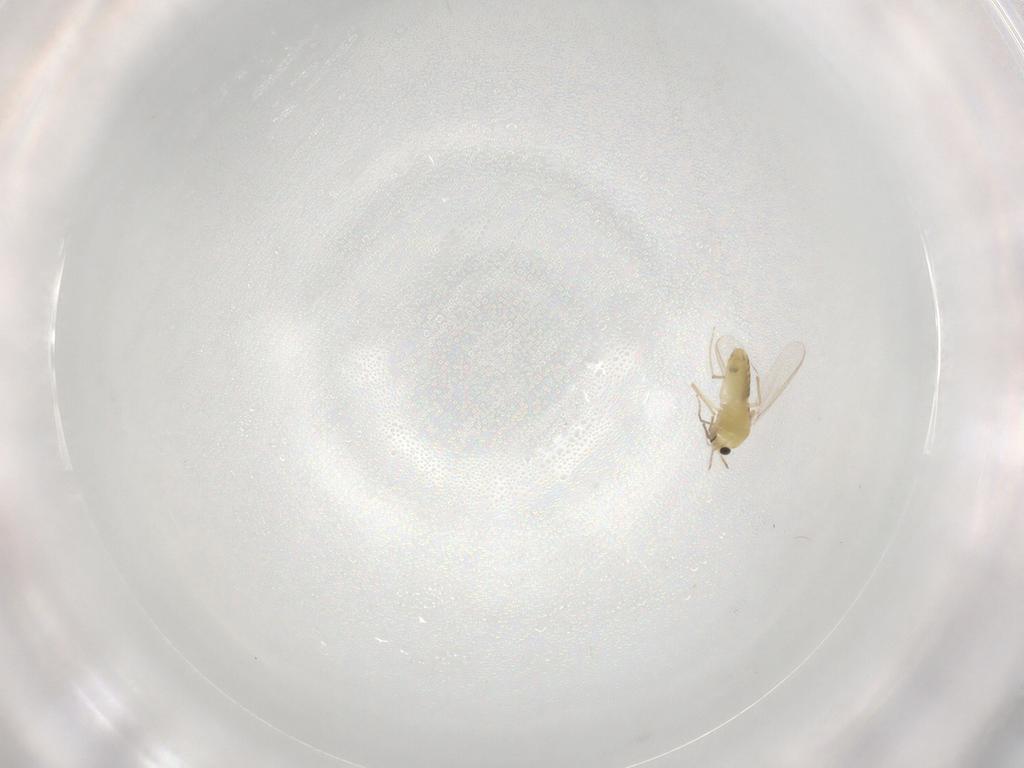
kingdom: Animalia
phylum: Arthropoda
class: Insecta
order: Diptera
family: Chironomidae
